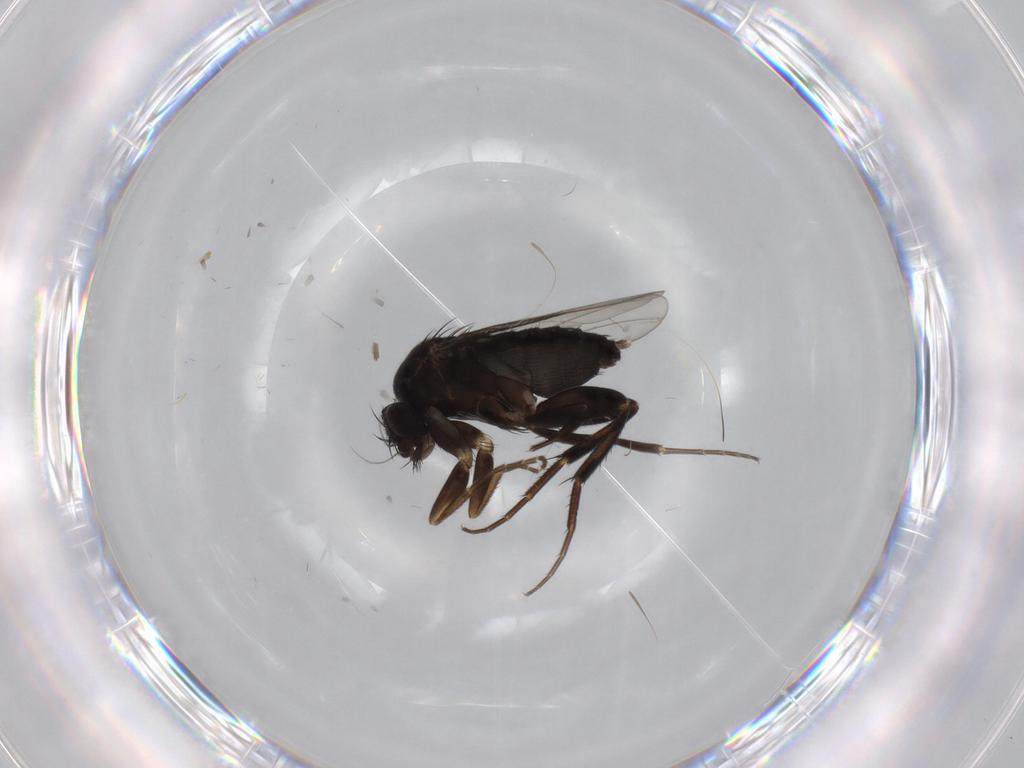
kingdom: Animalia
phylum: Arthropoda
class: Insecta
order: Diptera
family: Phoridae
